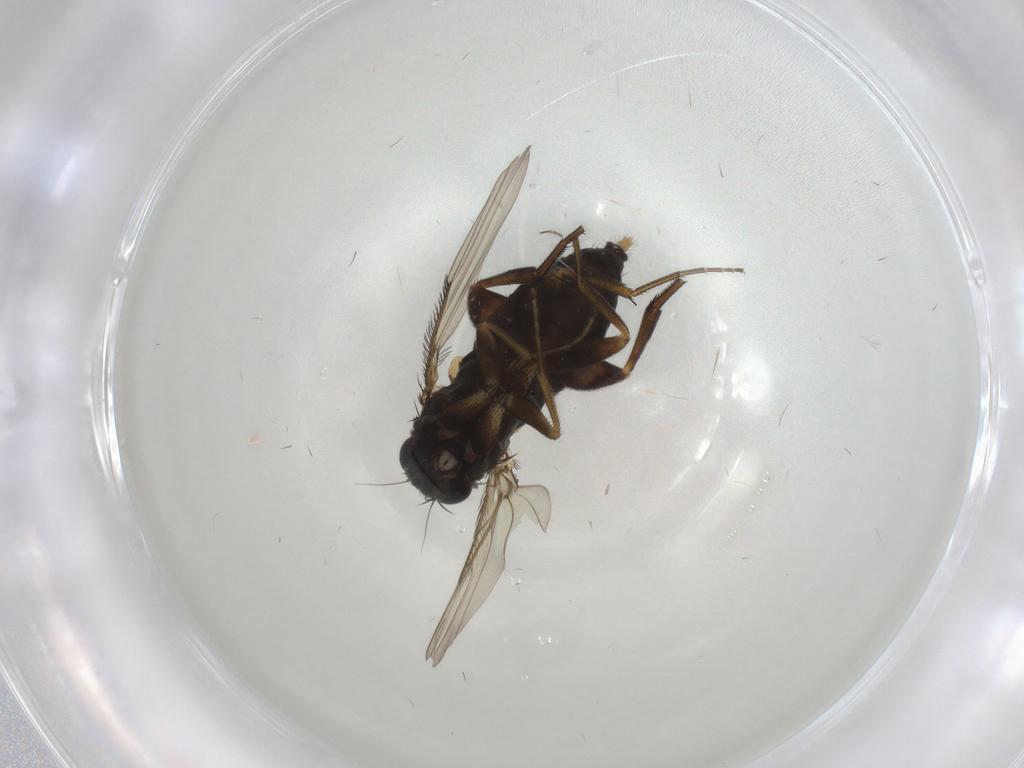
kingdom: Animalia
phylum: Arthropoda
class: Insecta
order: Diptera
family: Phoridae
